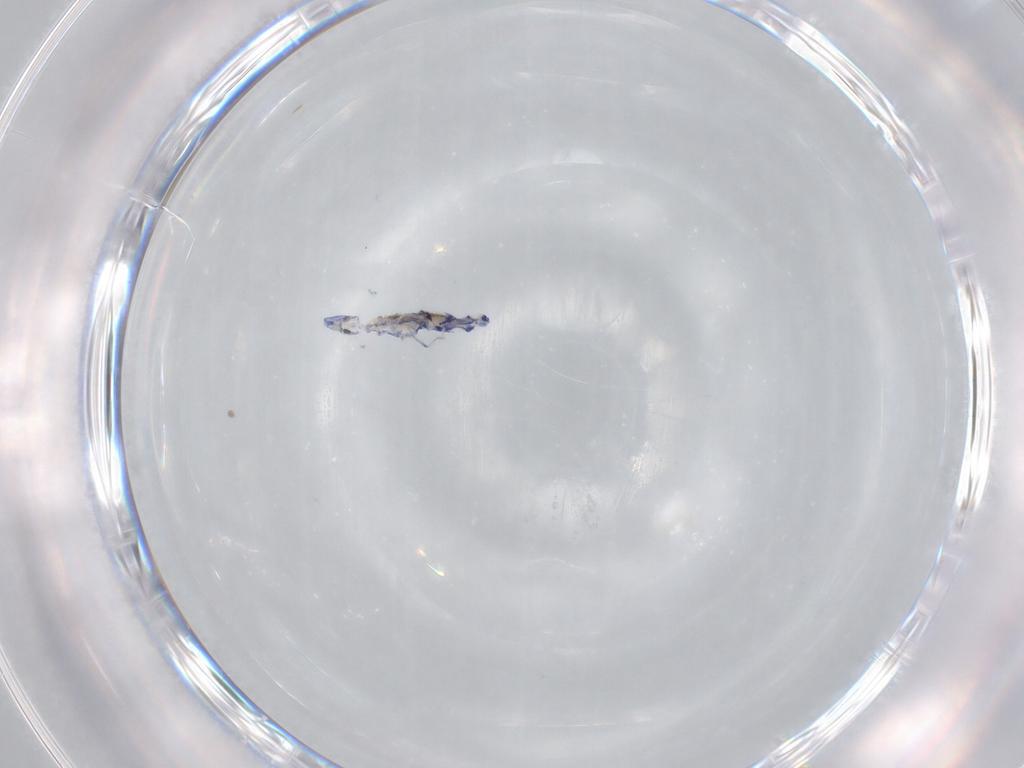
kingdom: Animalia
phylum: Arthropoda
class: Collembola
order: Entomobryomorpha
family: Entomobryidae
